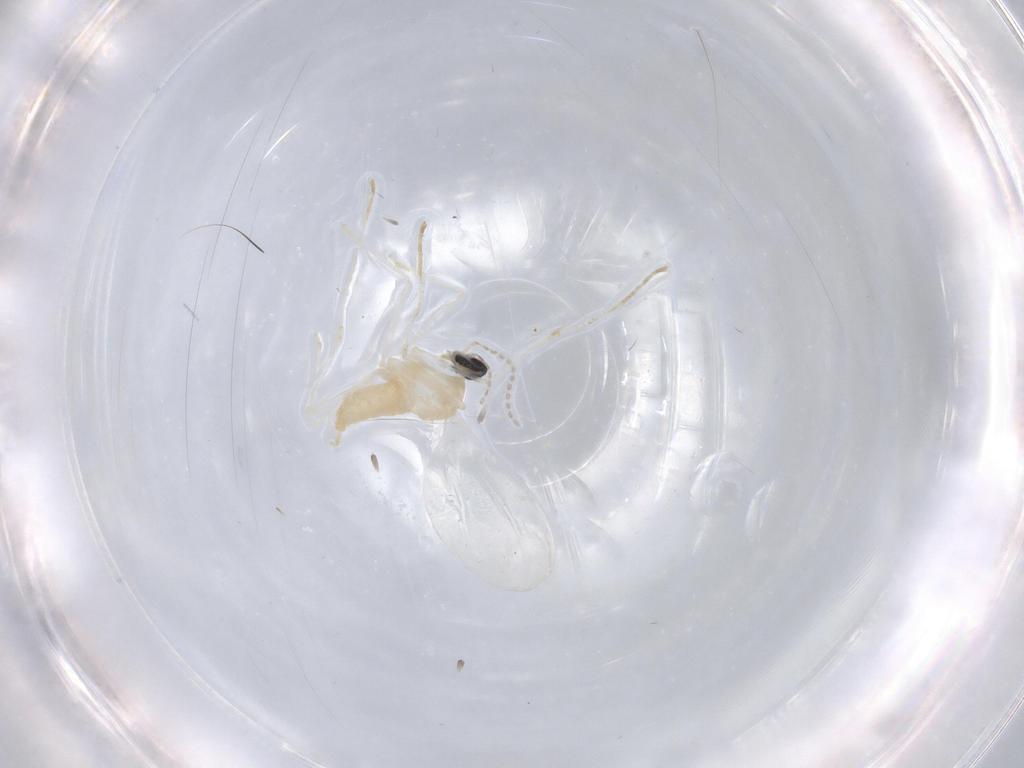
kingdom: Animalia
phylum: Arthropoda
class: Insecta
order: Diptera
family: Cecidomyiidae
